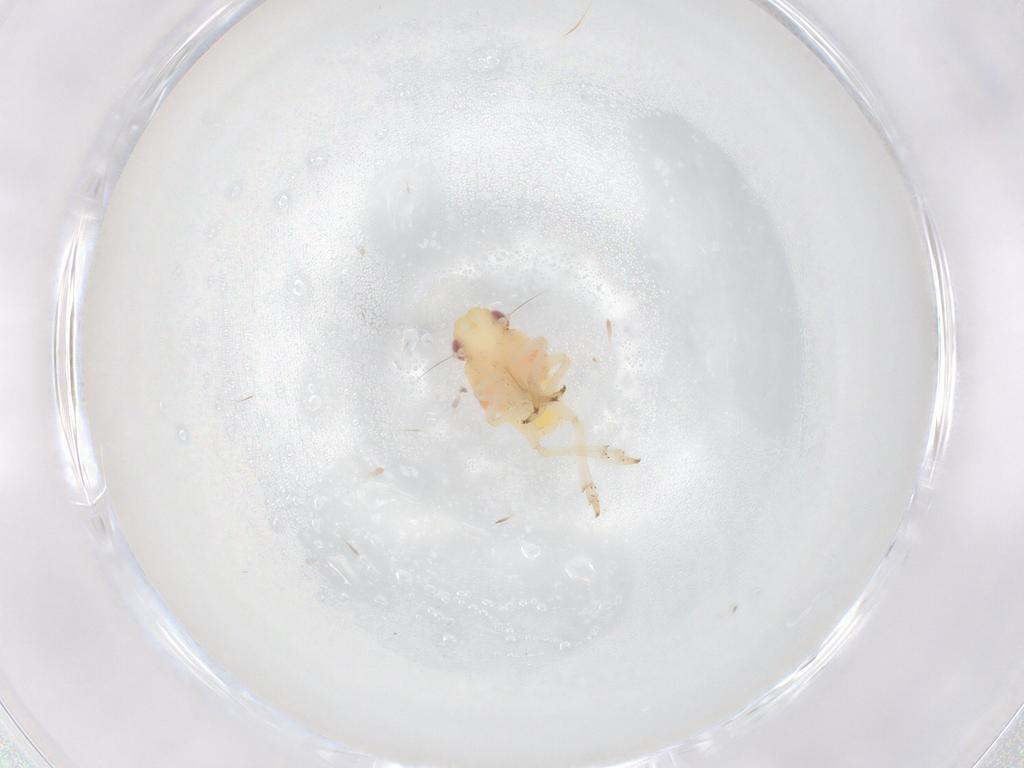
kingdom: Animalia
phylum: Arthropoda
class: Insecta
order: Hemiptera
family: Caliscelidae
